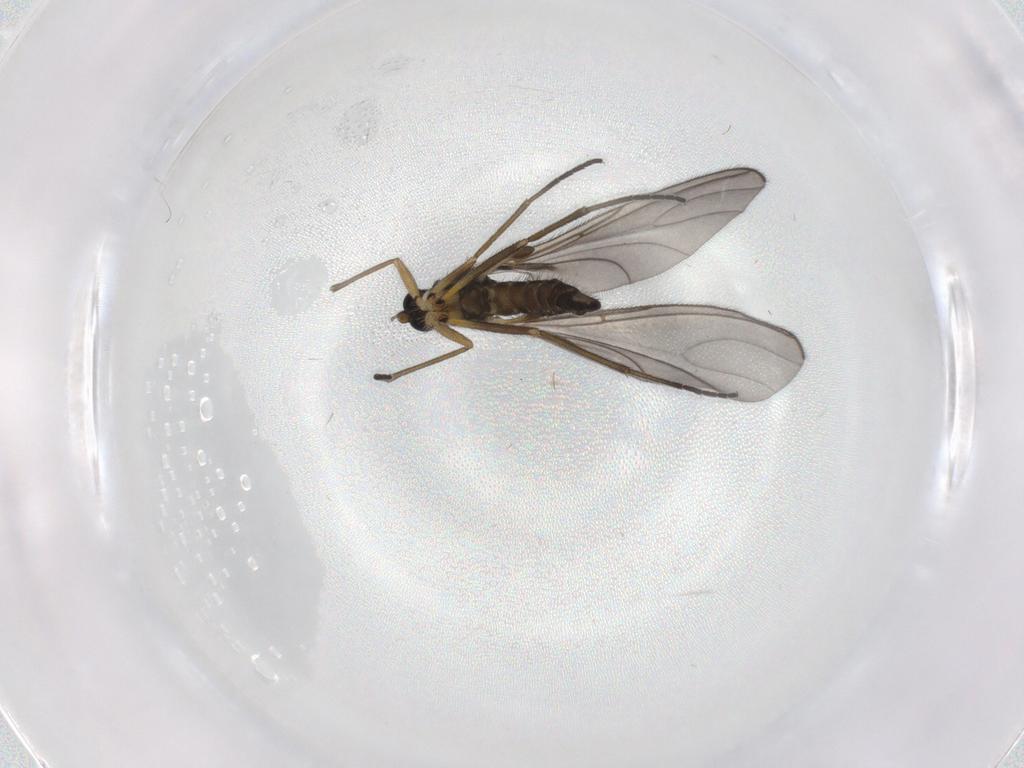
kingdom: Animalia
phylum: Arthropoda
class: Insecta
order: Diptera
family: Sciaridae
